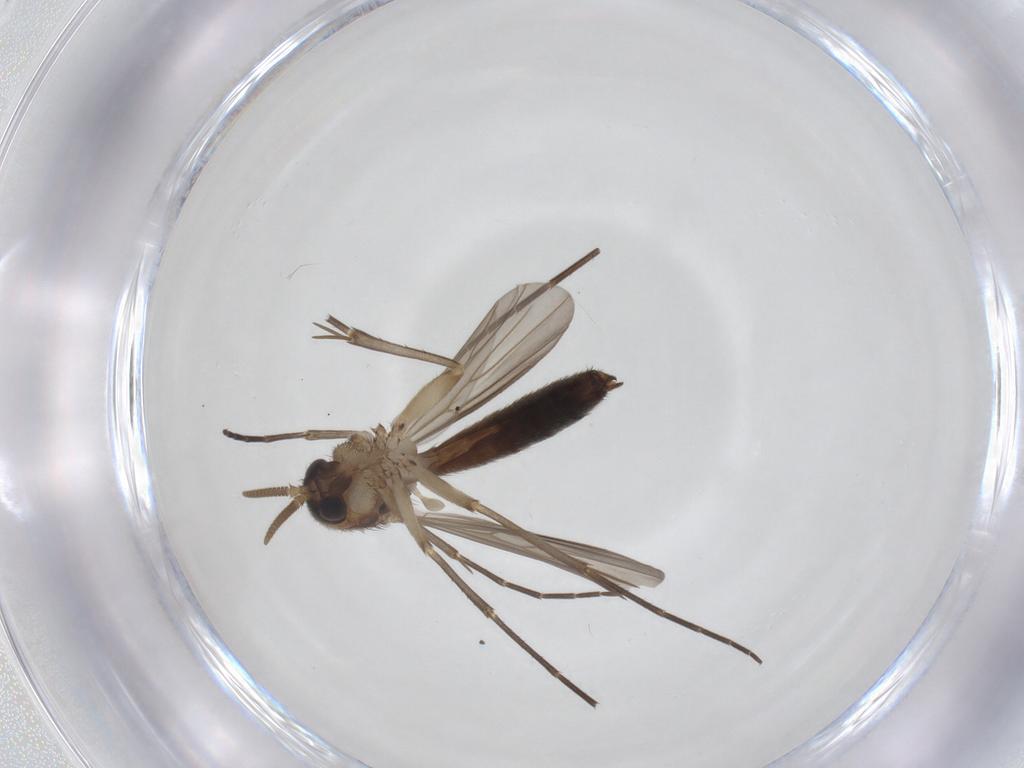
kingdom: Animalia
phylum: Arthropoda
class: Insecta
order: Diptera
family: Mycetophilidae
